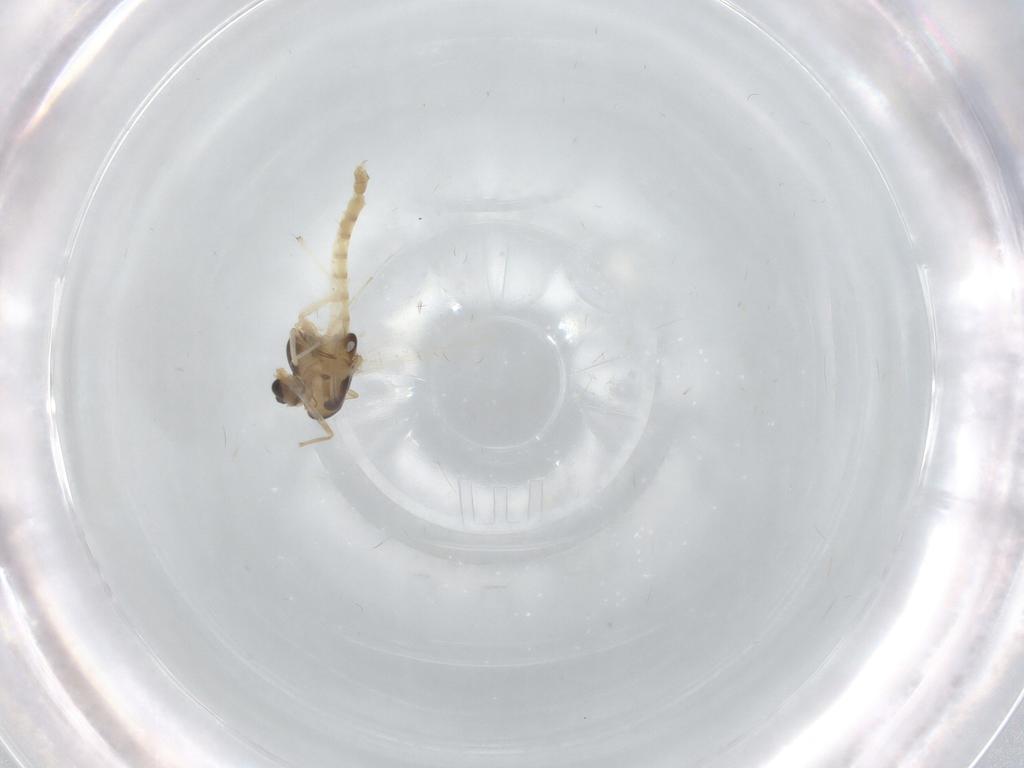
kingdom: Animalia
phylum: Arthropoda
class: Insecta
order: Diptera
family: Chironomidae
